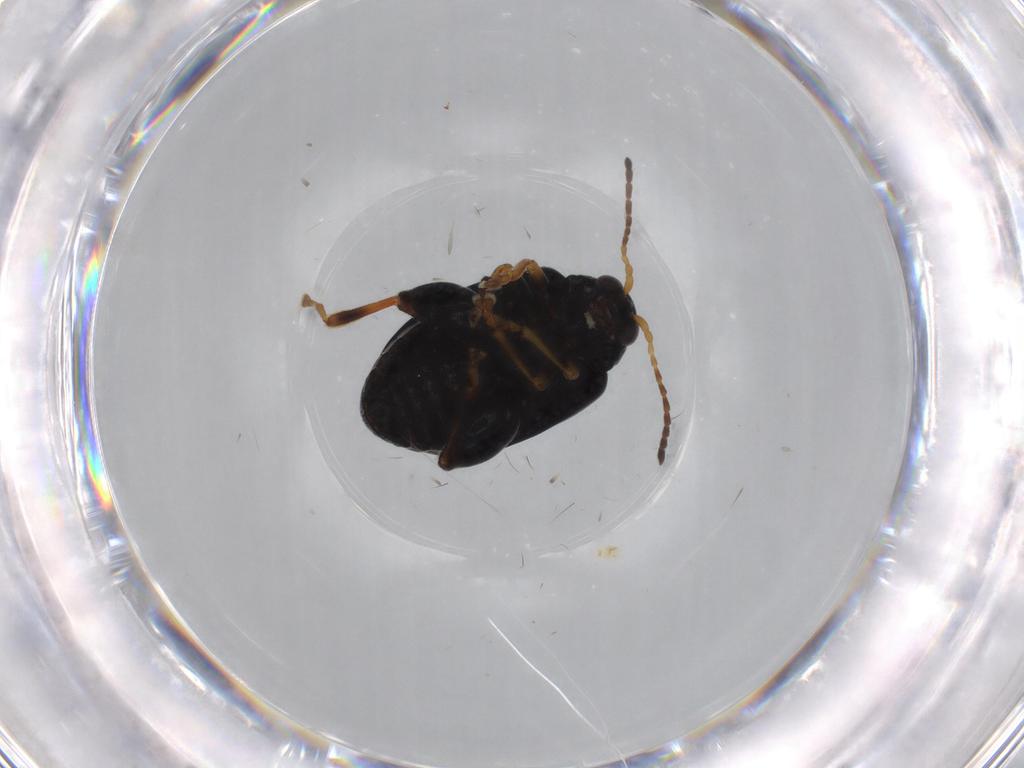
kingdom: Animalia
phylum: Arthropoda
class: Insecta
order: Coleoptera
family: Chrysomelidae
